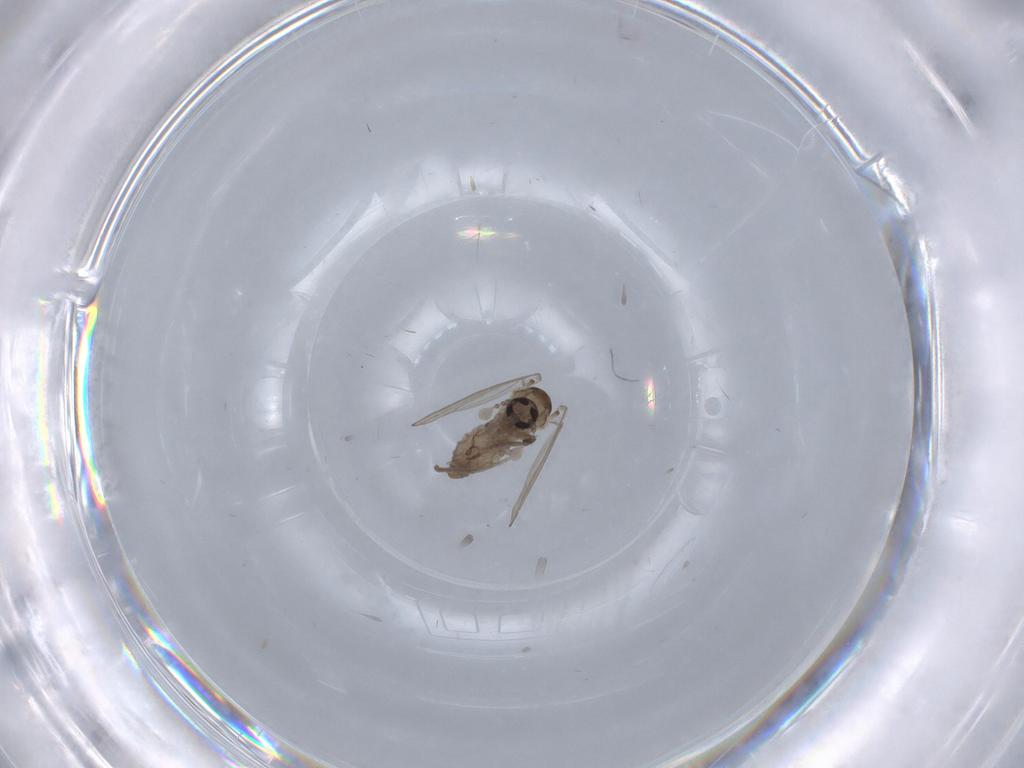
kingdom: Animalia
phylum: Arthropoda
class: Insecta
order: Diptera
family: Psychodidae
